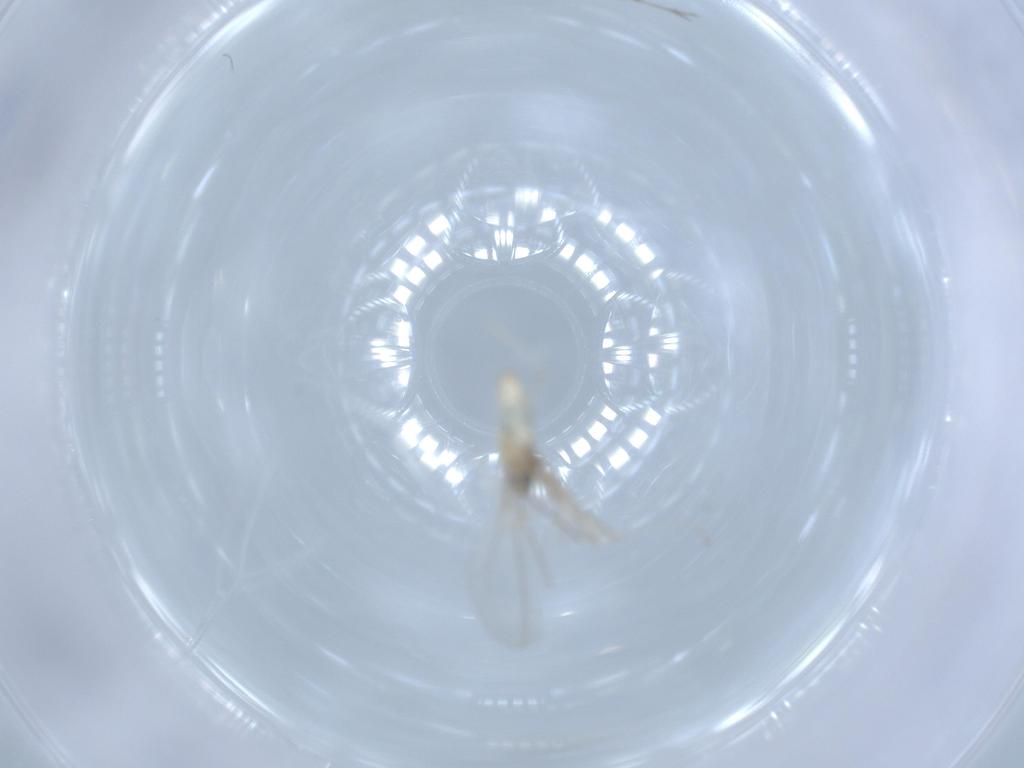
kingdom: Animalia
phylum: Arthropoda
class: Insecta
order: Diptera
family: Cecidomyiidae
